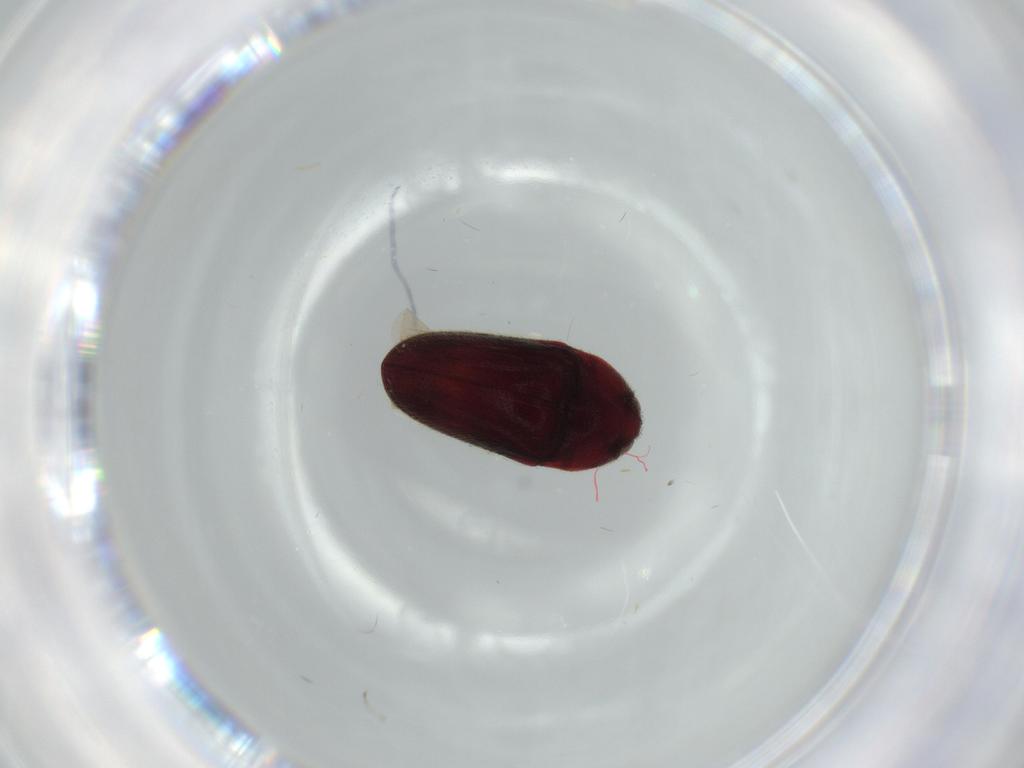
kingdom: Animalia
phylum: Arthropoda
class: Insecta
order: Coleoptera
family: Throscidae
